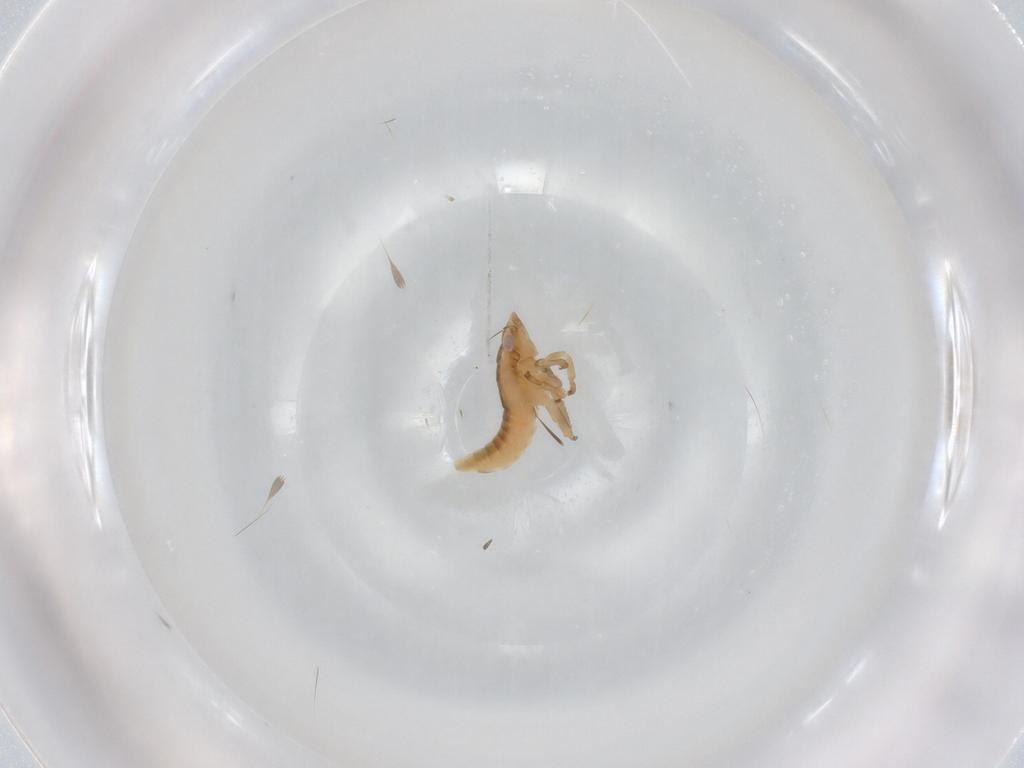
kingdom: Animalia
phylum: Arthropoda
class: Insecta
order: Hemiptera
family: Cicadellidae
